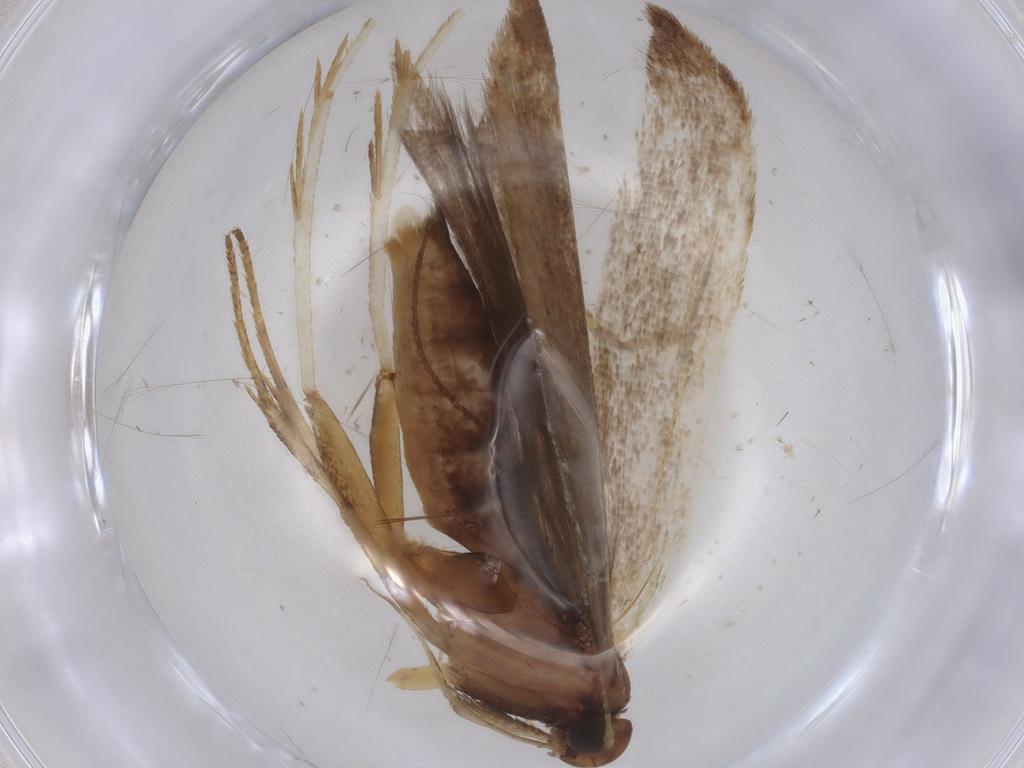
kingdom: Animalia
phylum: Arthropoda
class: Insecta
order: Lepidoptera
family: Gelechiidae
